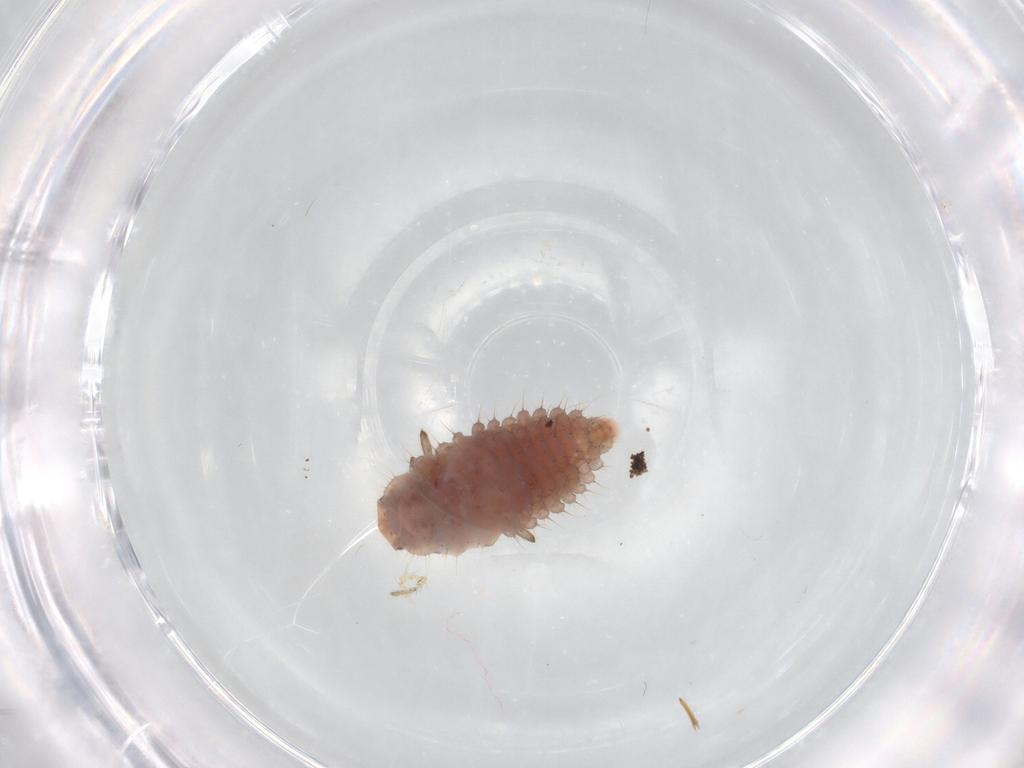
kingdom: Animalia
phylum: Arthropoda
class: Insecta
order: Coleoptera
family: Coccinellidae
